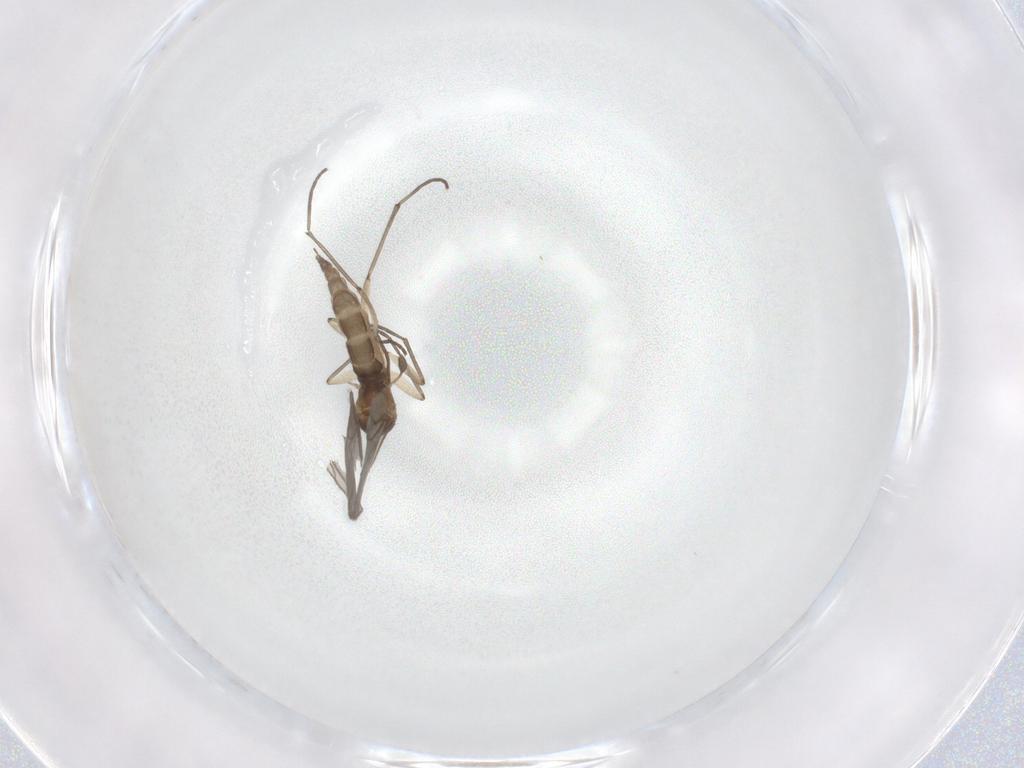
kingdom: Animalia
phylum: Arthropoda
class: Insecta
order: Diptera
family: Sciaridae
